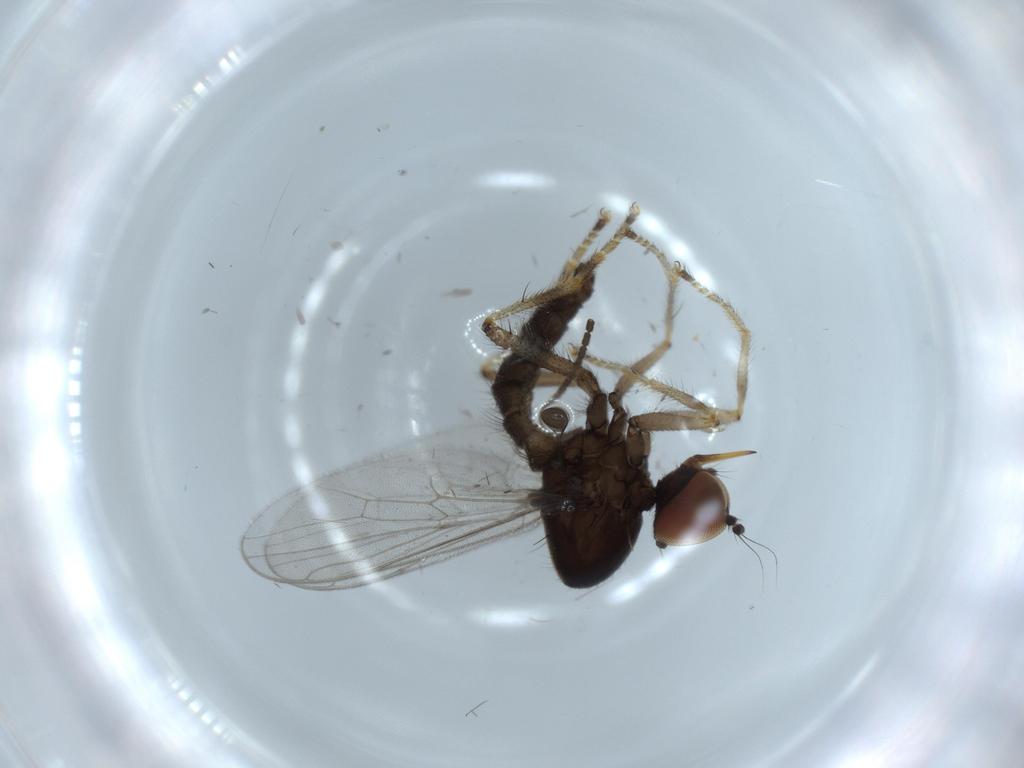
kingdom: Animalia
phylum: Arthropoda
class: Insecta
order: Diptera
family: Hybotidae
